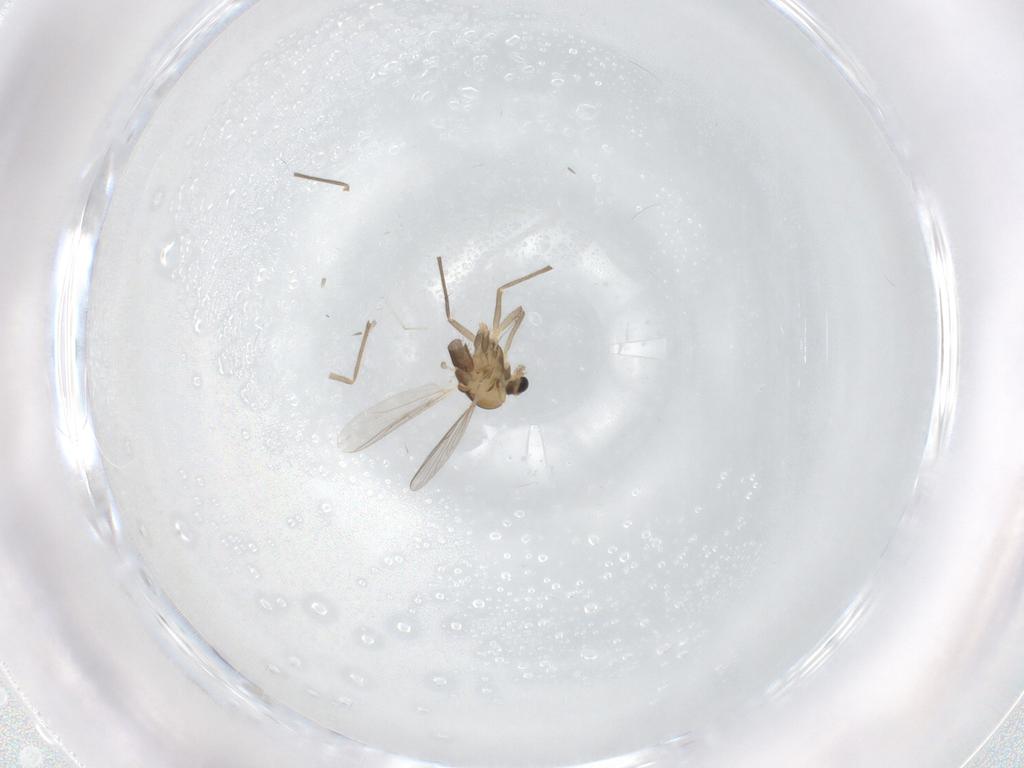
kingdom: Animalia
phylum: Arthropoda
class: Insecta
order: Diptera
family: Chironomidae
